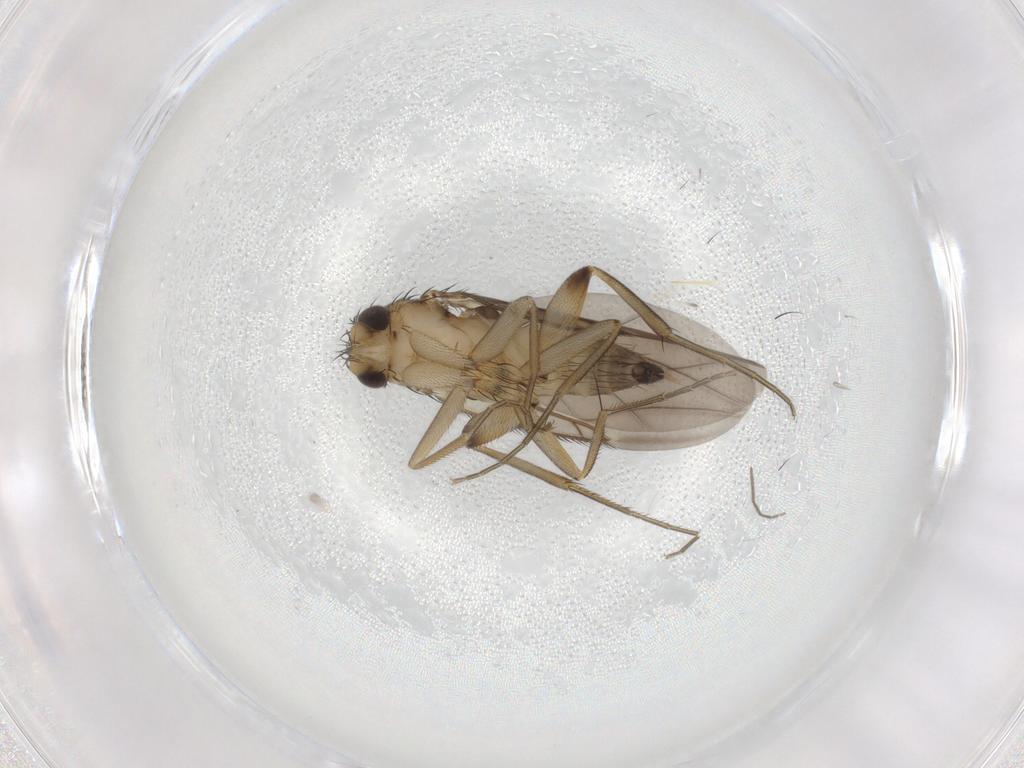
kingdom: Animalia
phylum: Arthropoda
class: Insecta
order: Diptera
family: Phoridae
